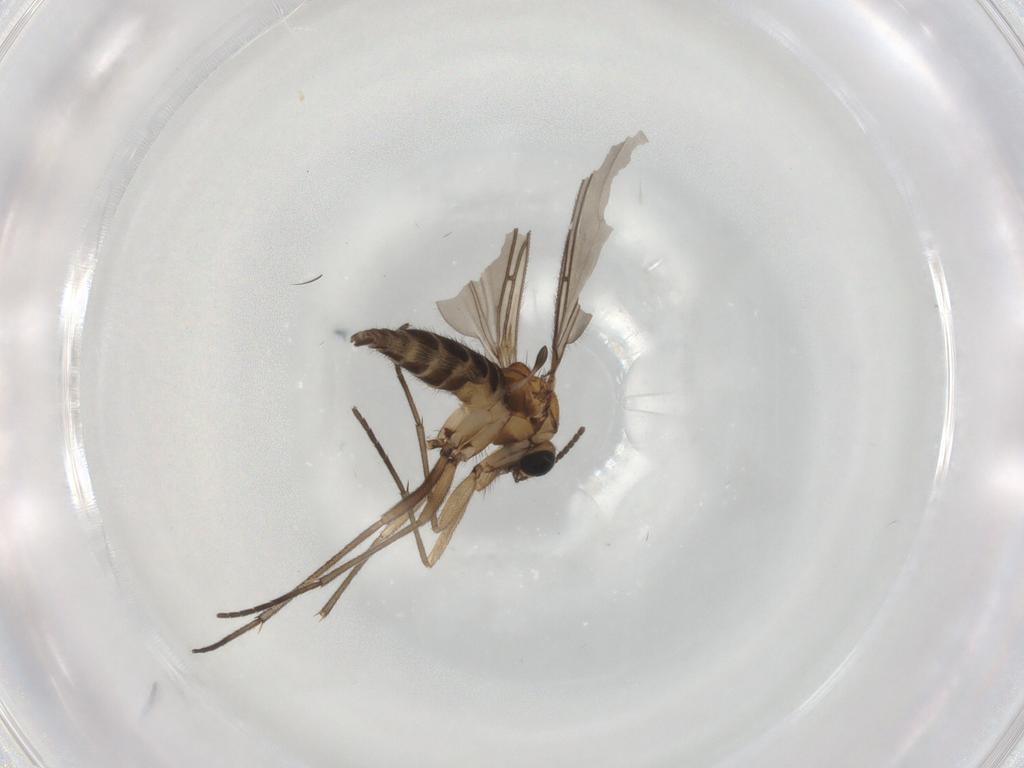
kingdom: Animalia
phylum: Arthropoda
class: Insecta
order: Diptera
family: Sciaridae
